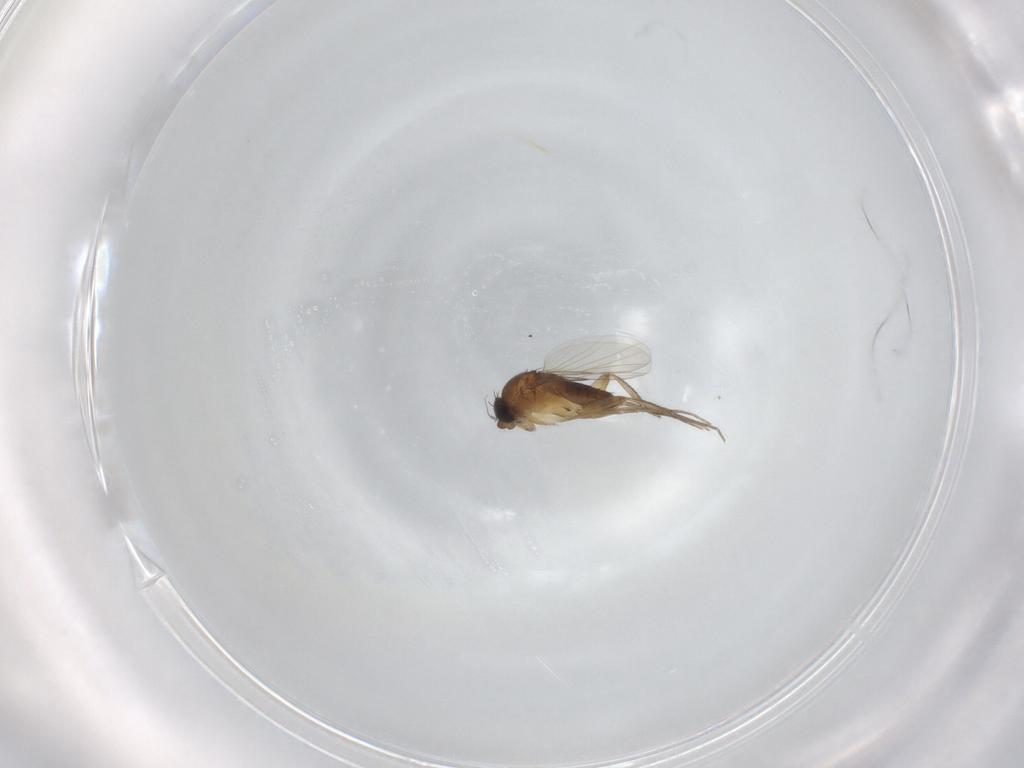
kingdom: Animalia
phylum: Arthropoda
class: Insecta
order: Diptera
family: Phoridae
